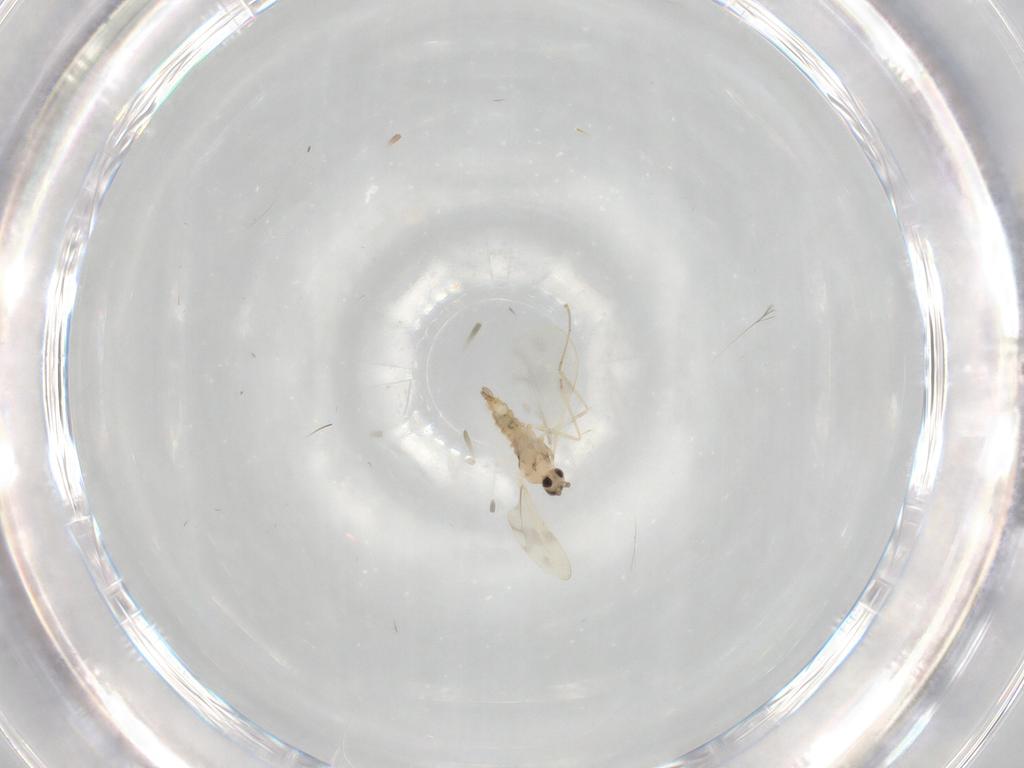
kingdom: Animalia
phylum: Arthropoda
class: Insecta
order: Diptera
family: Cecidomyiidae
